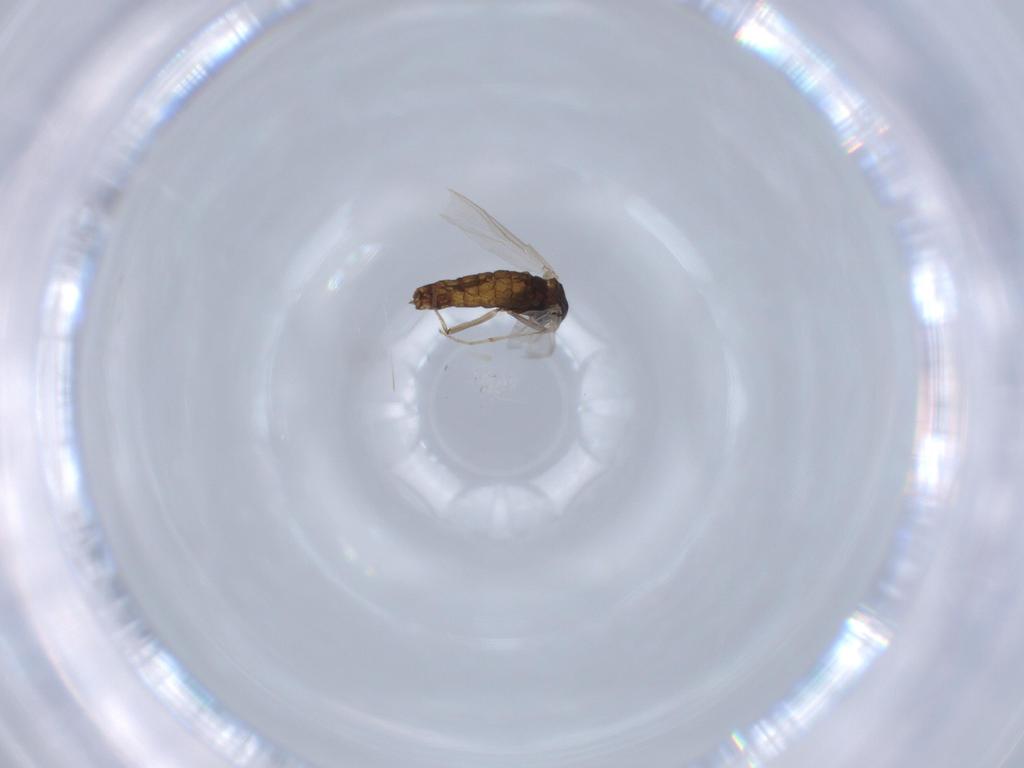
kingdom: Animalia
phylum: Arthropoda
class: Insecta
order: Diptera
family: Chironomidae
